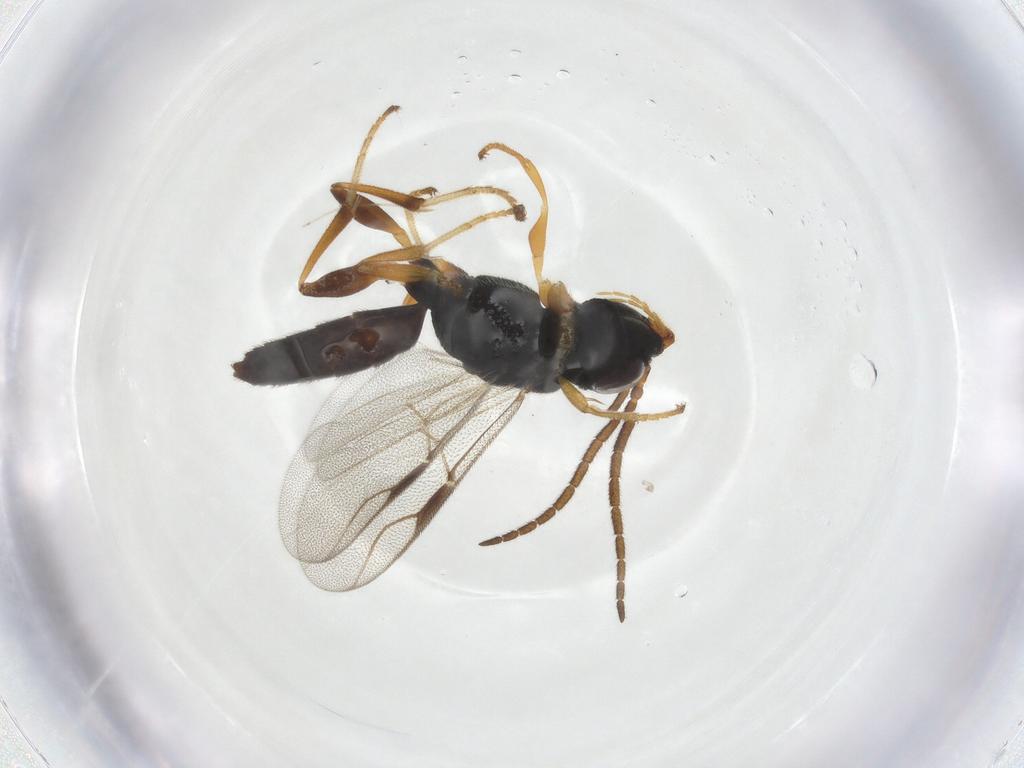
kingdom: Animalia
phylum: Arthropoda
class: Insecta
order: Hymenoptera
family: Dryinidae
